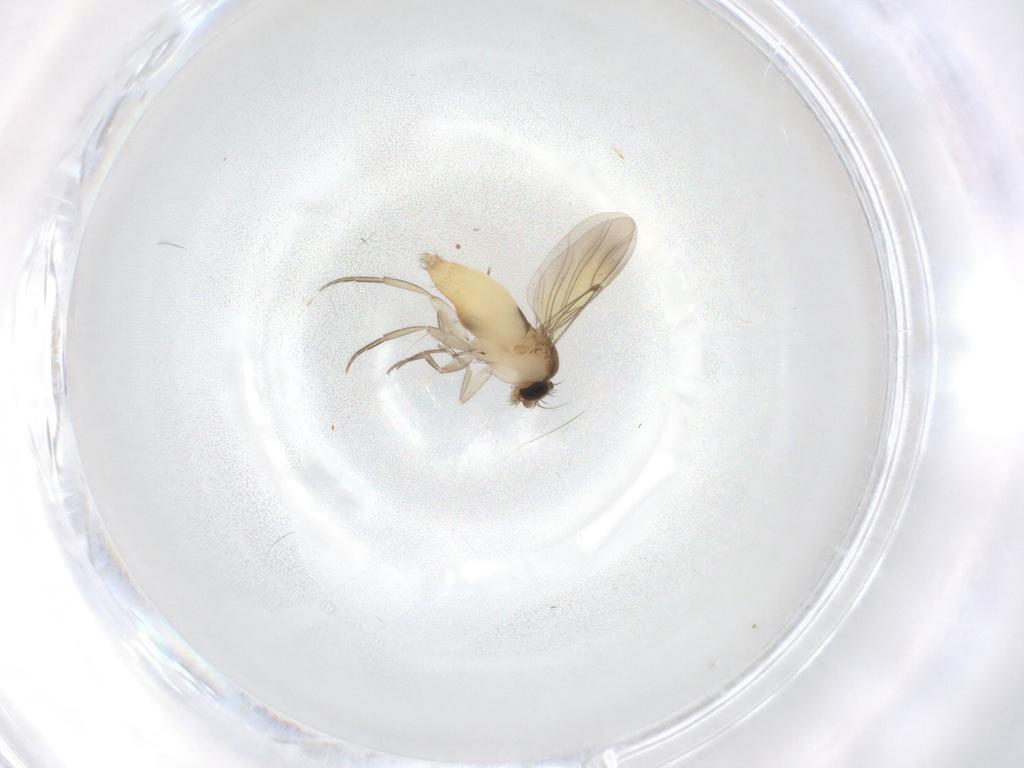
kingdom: Animalia
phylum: Arthropoda
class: Insecta
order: Diptera
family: Phoridae
